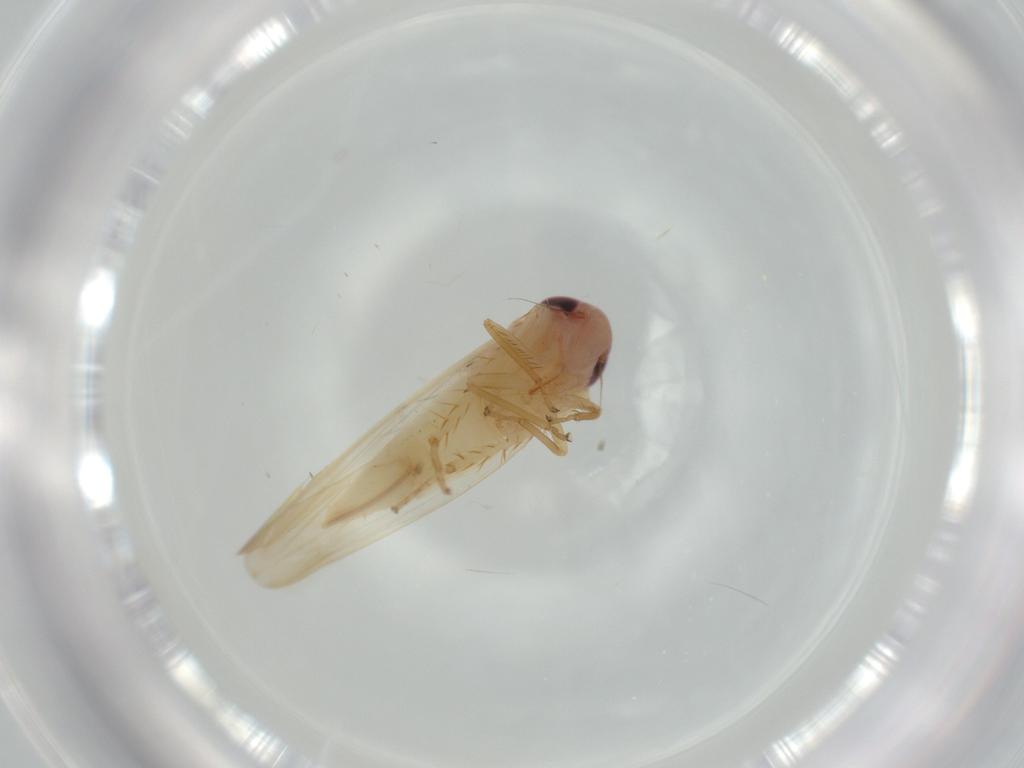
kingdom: Animalia
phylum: Arthropoda
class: Insecta
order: Hemiptera
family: Cicadellidae
